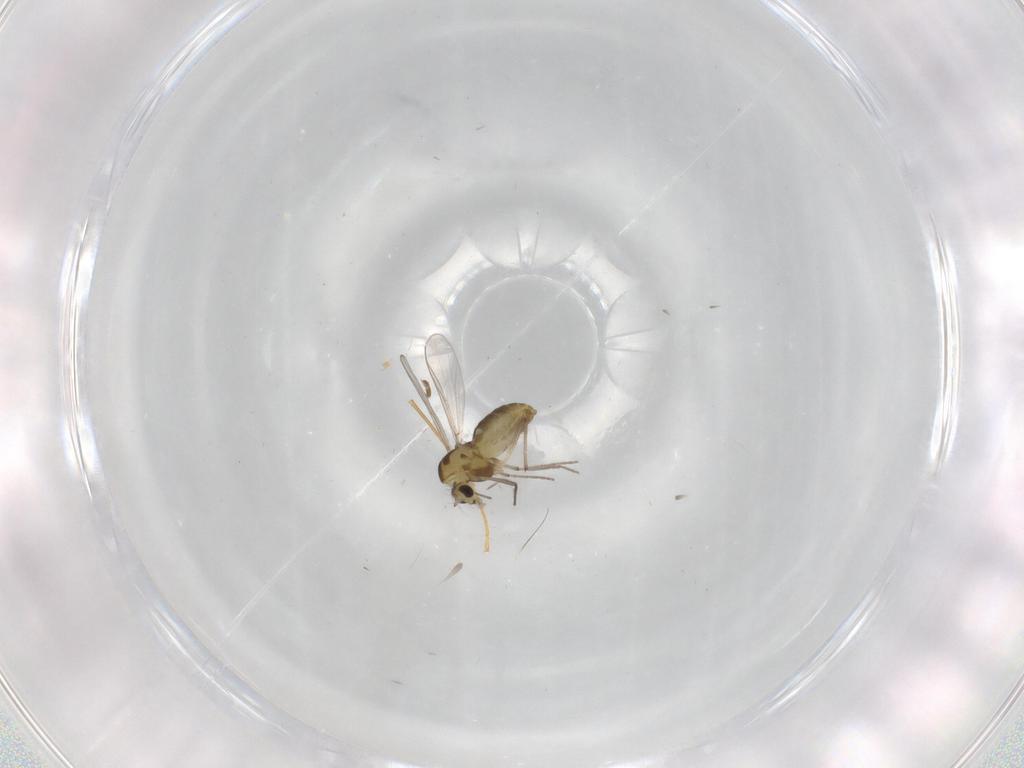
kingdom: Animalia
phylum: Arthropoda
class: Insecta
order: Diptera
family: Chironomidae
